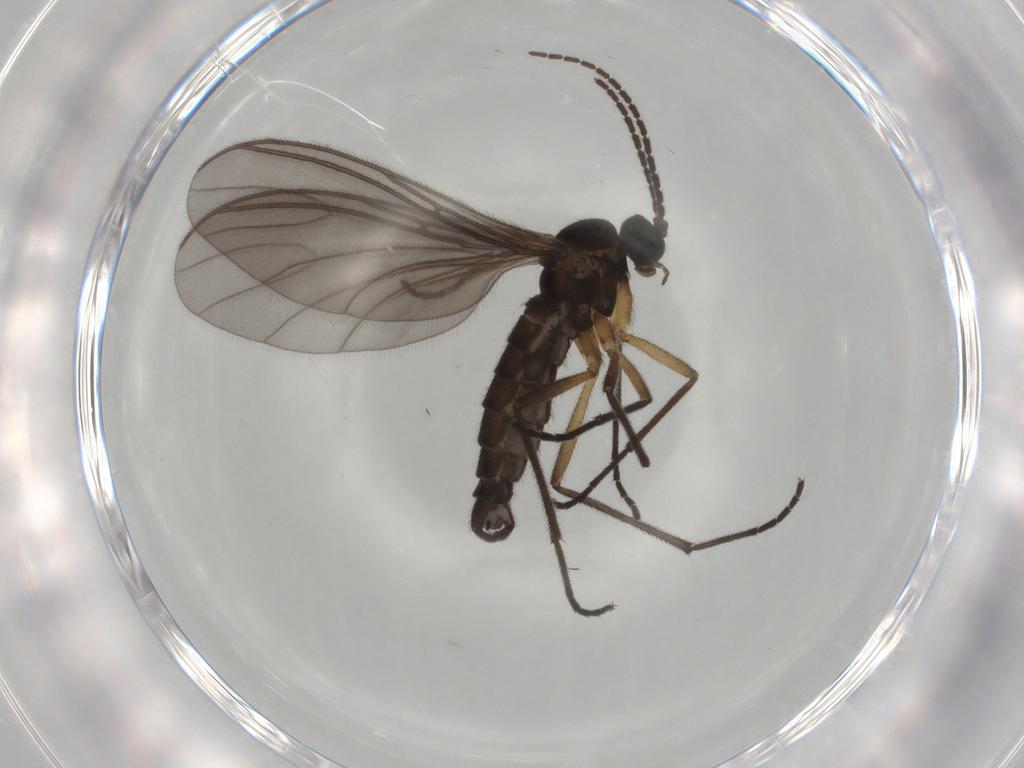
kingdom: Animalia
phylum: Arthropoda
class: Insecta
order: Diptera
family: Sciaridae
